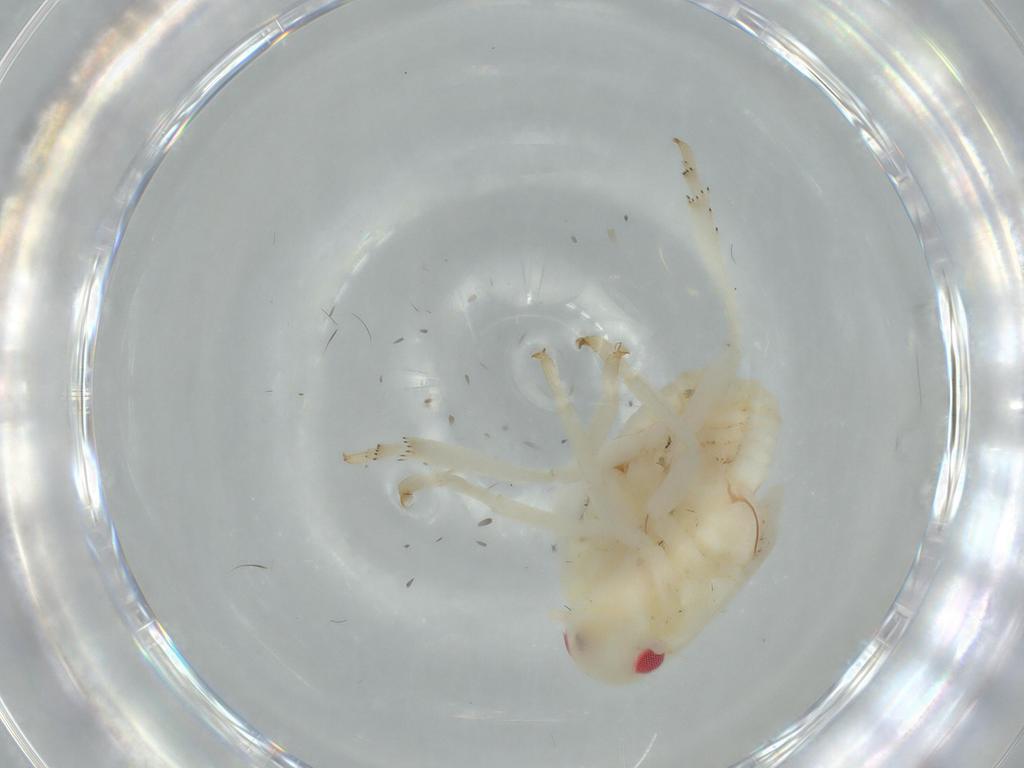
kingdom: Animalia
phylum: Arthropoda
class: Insecta
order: Hemiptera
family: Flatidae
